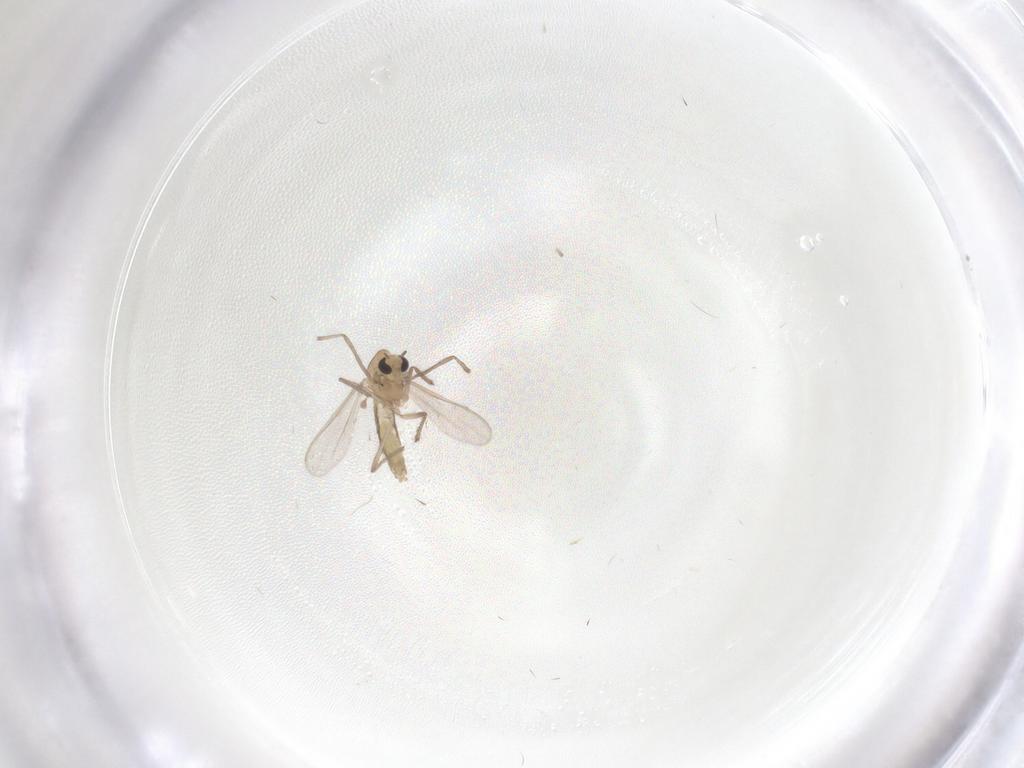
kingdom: Animalia
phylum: Arthropoda
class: Insecta
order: Diptera
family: Chironomidae
